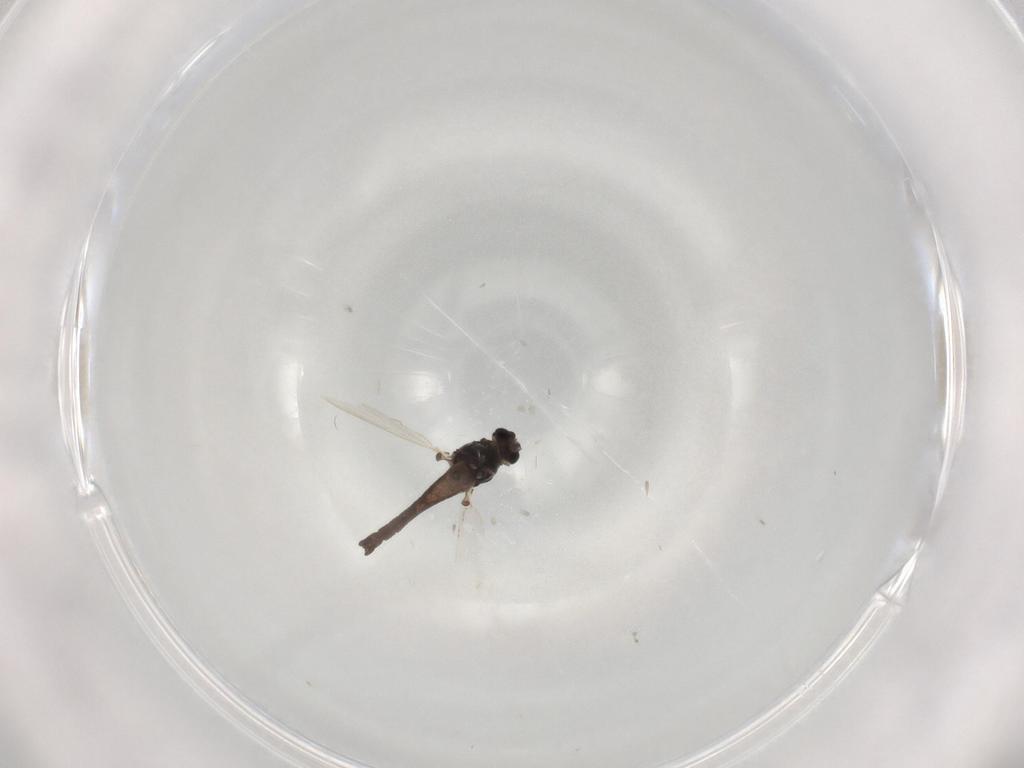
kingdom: Animalia
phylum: Arthropoda
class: Insecta
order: Diptera
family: Chironomidae
